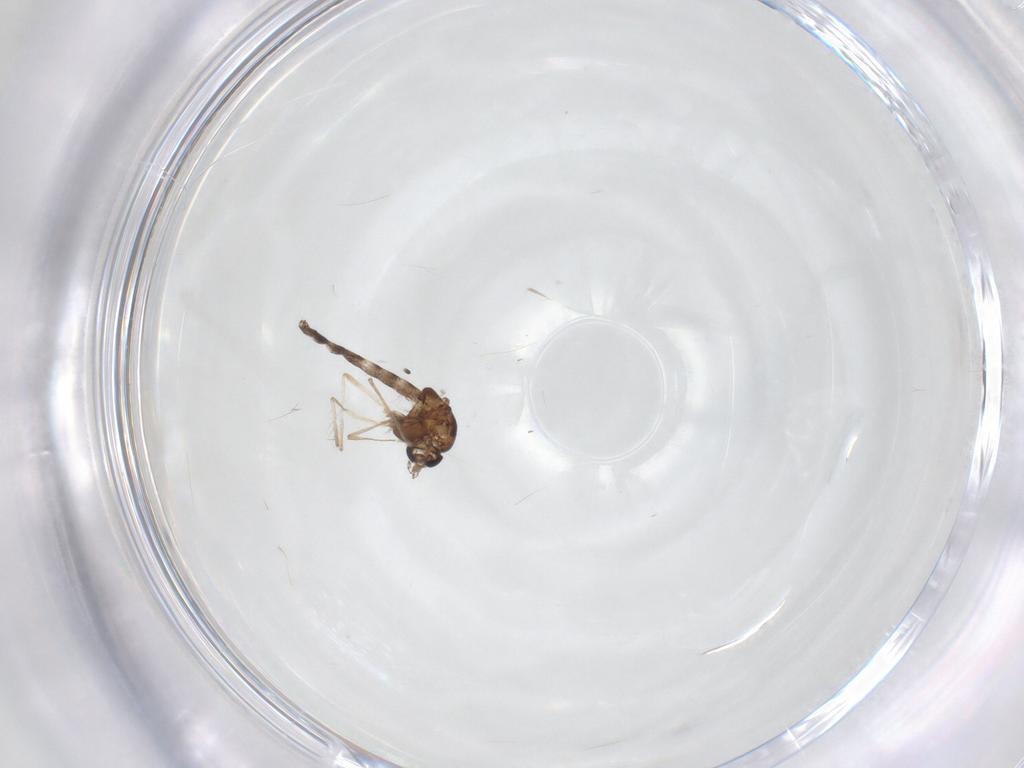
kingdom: Animalia
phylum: Arthropoda
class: Insecta
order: Diptera
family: Chironomidae
